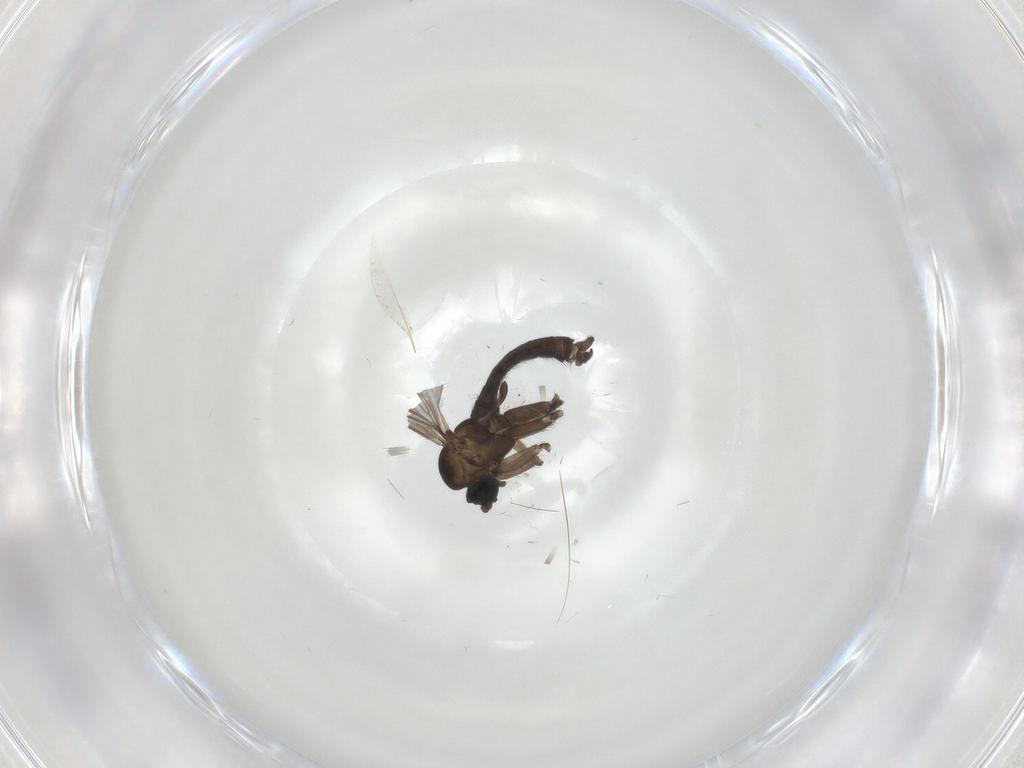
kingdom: Animalia
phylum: Arthropoda
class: Insecta
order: Diptera
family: Sciaridae
